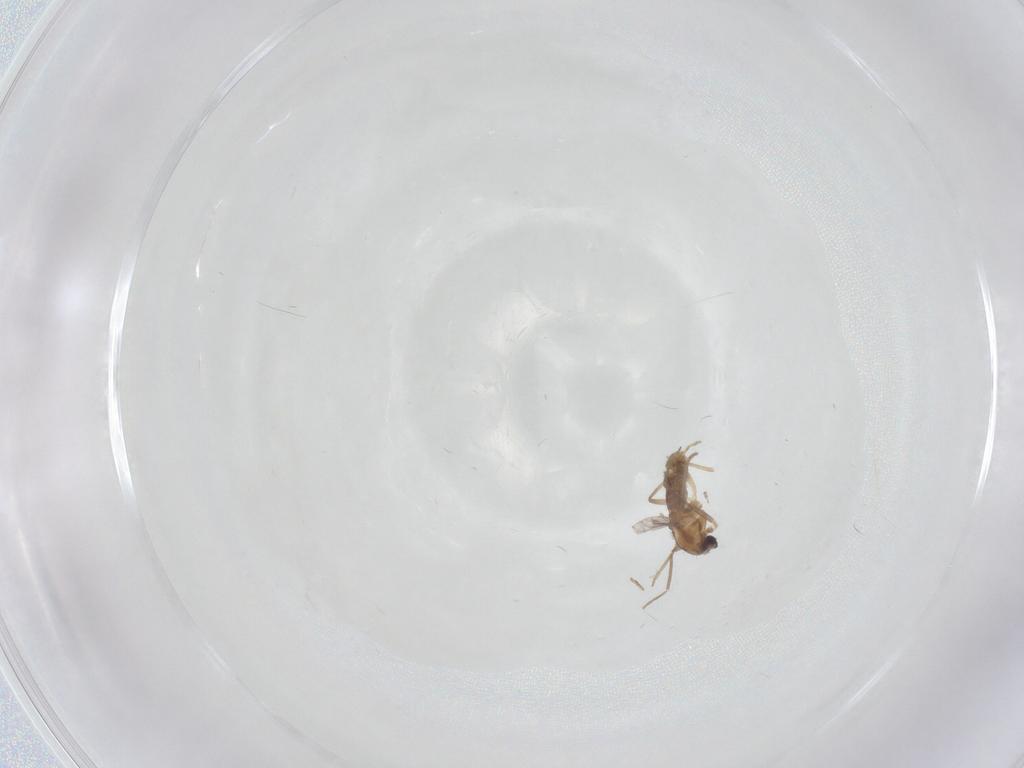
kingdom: Animalia
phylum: Arthropoda
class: Insecta
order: Diptera
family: Chironomidae
